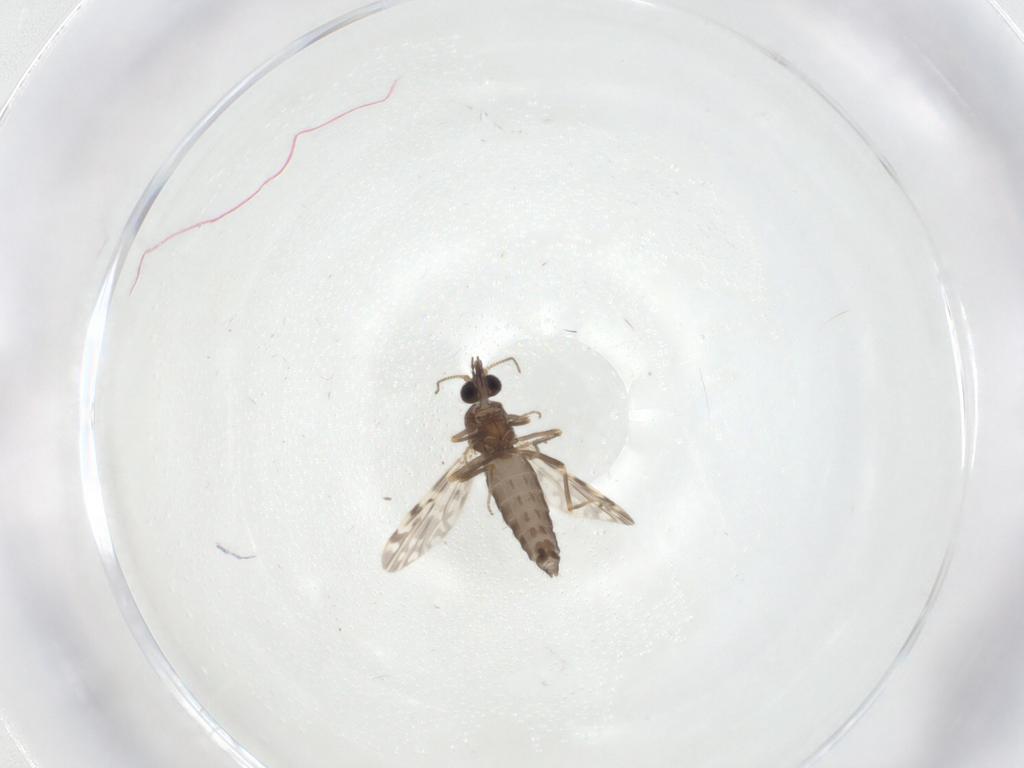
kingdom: Animalia
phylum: Arthropoda
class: Insecta
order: Diptera
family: Ceratopogonidae
